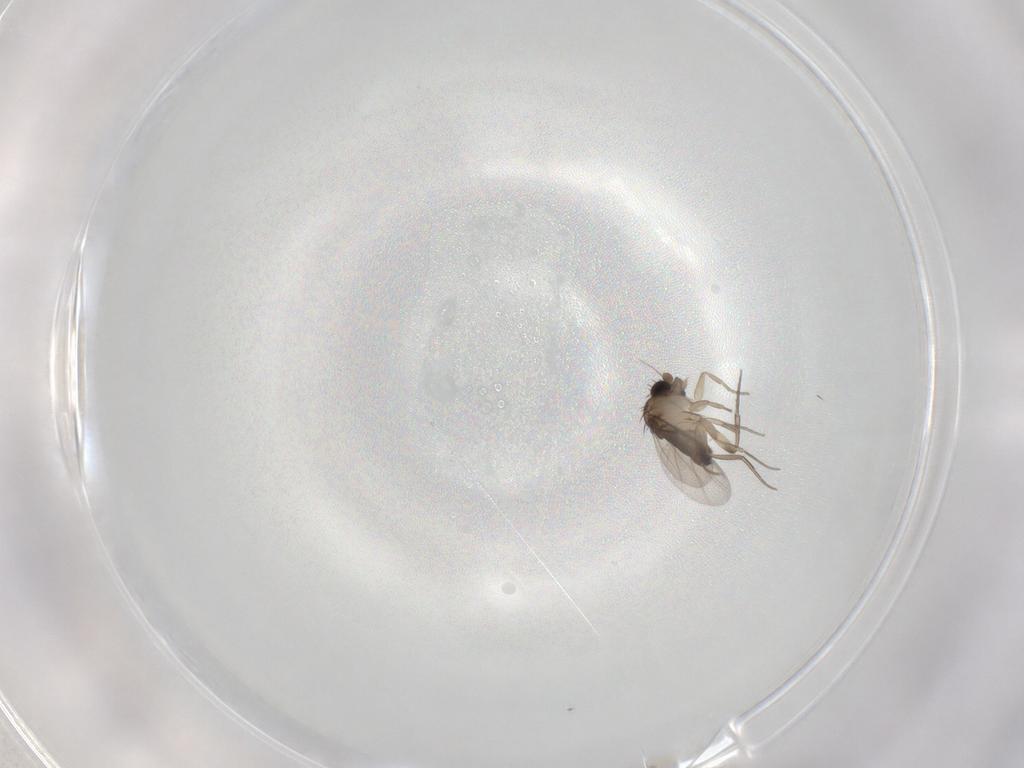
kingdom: Animalia
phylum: Arthropoda
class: Insecta
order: Diptera
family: Phoridae
